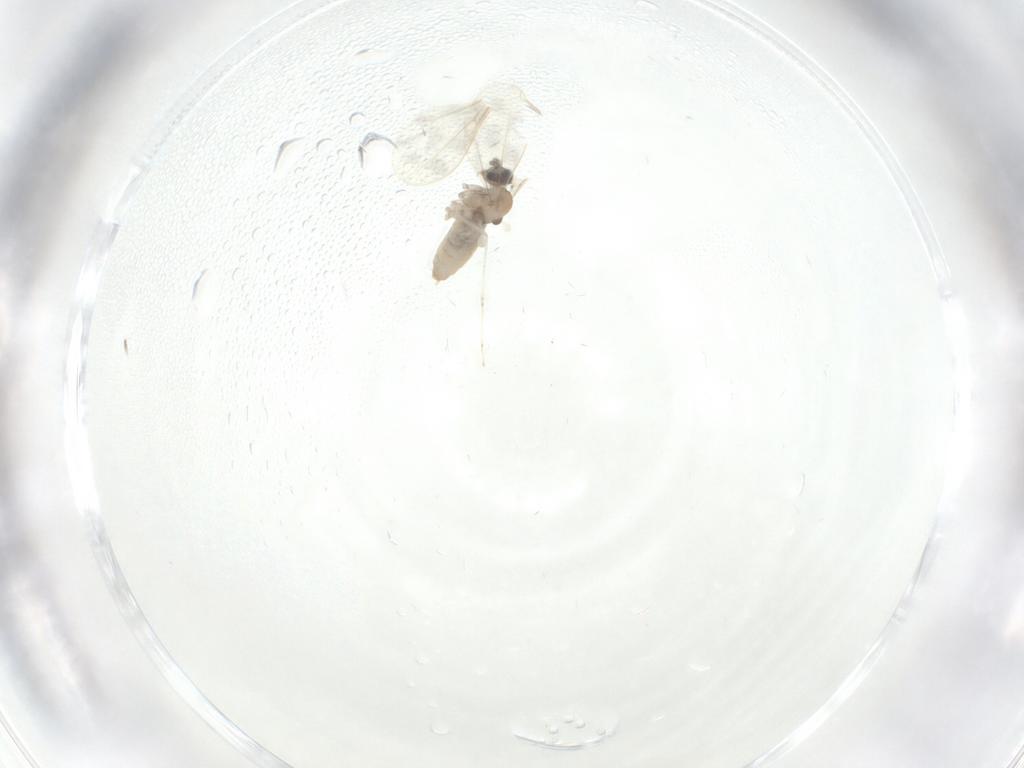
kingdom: Animalia
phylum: Arthropoda
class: Insecta
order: Diptera
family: Cecidomyiidae
